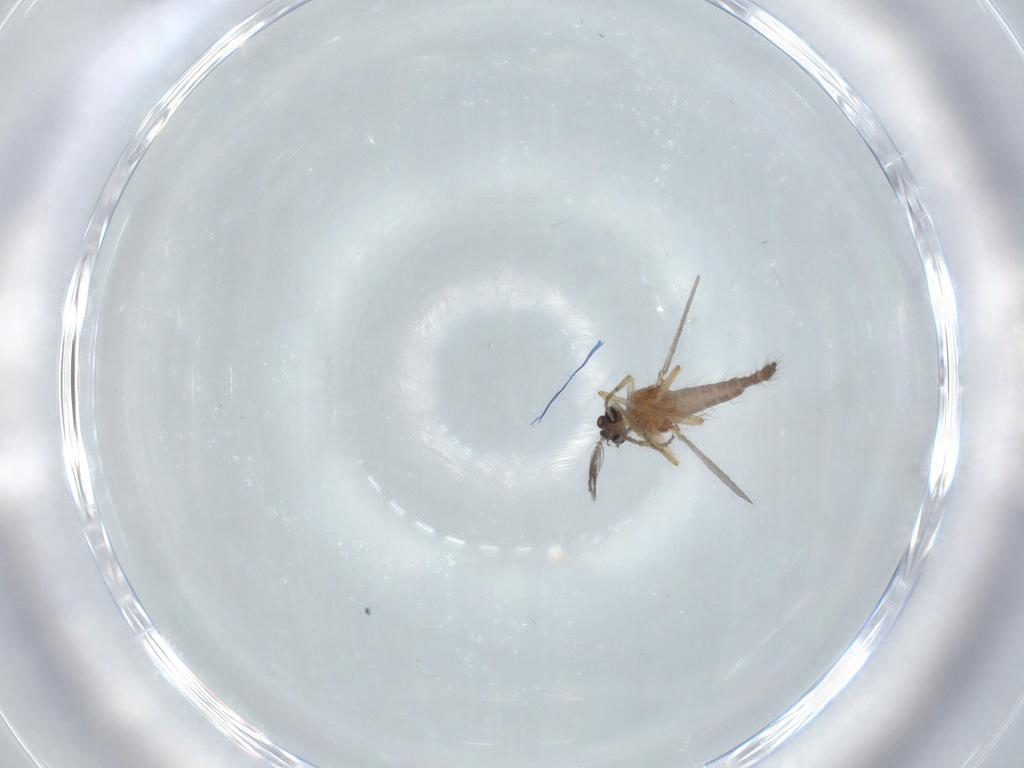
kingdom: Animalia
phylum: Arthropoda
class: Insecta
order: Diptera
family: Ceratopogonidae
